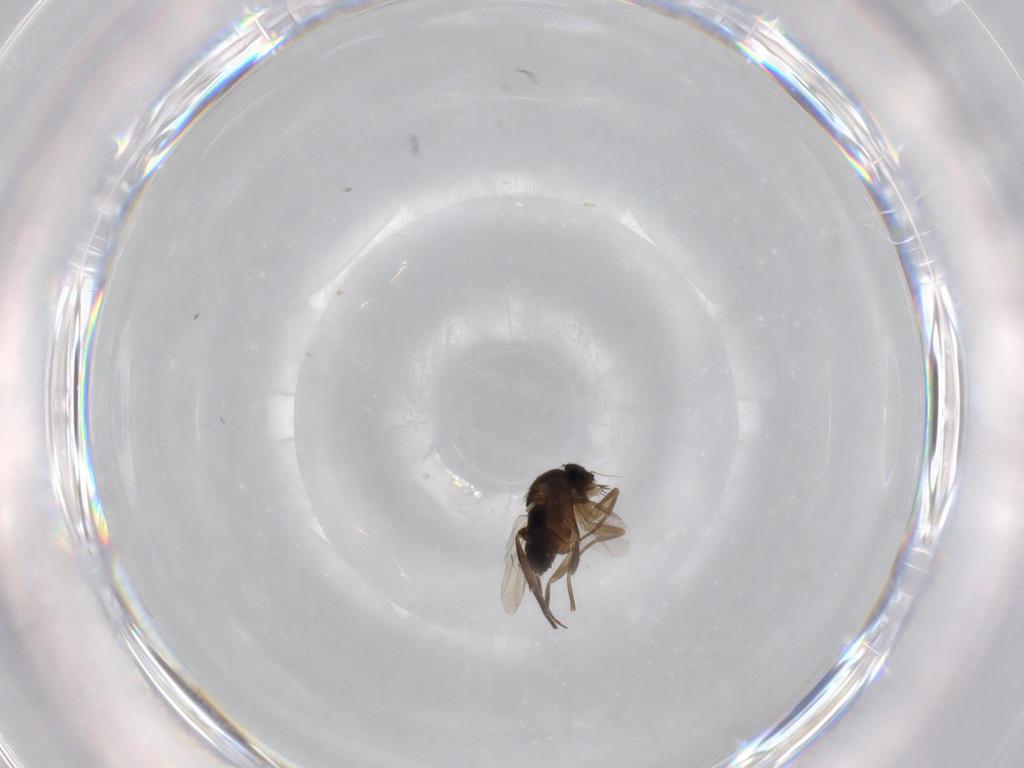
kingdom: Animalia
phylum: Arthropoda
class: Insecta
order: Diptera
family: Phoridae
